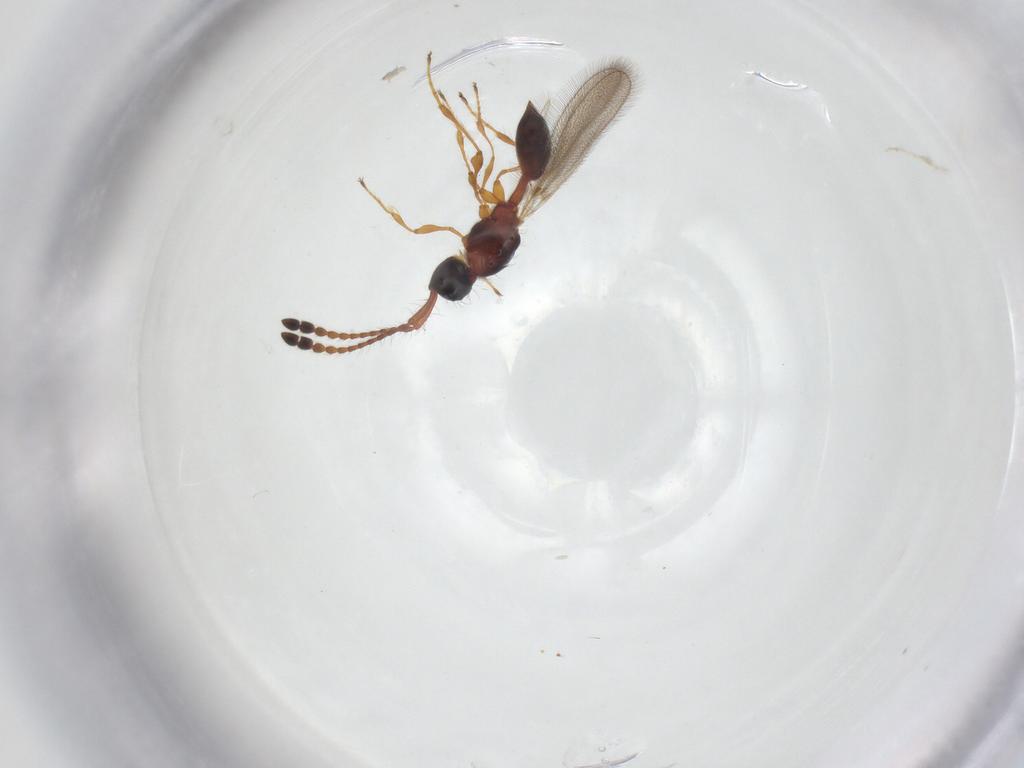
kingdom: Animalia
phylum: Arthropoda
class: Insecta
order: Hymenoptera
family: Diapriidae
